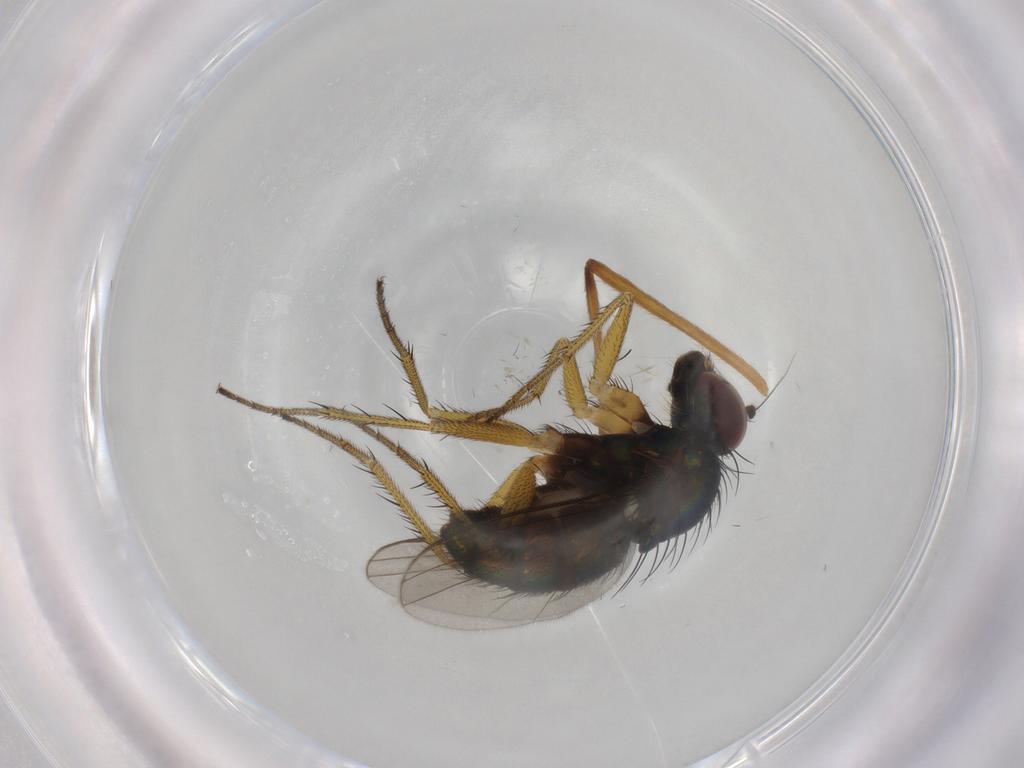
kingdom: Animalia
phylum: Arthropoda
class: Insecta
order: Diptera
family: Dolichopodidae
